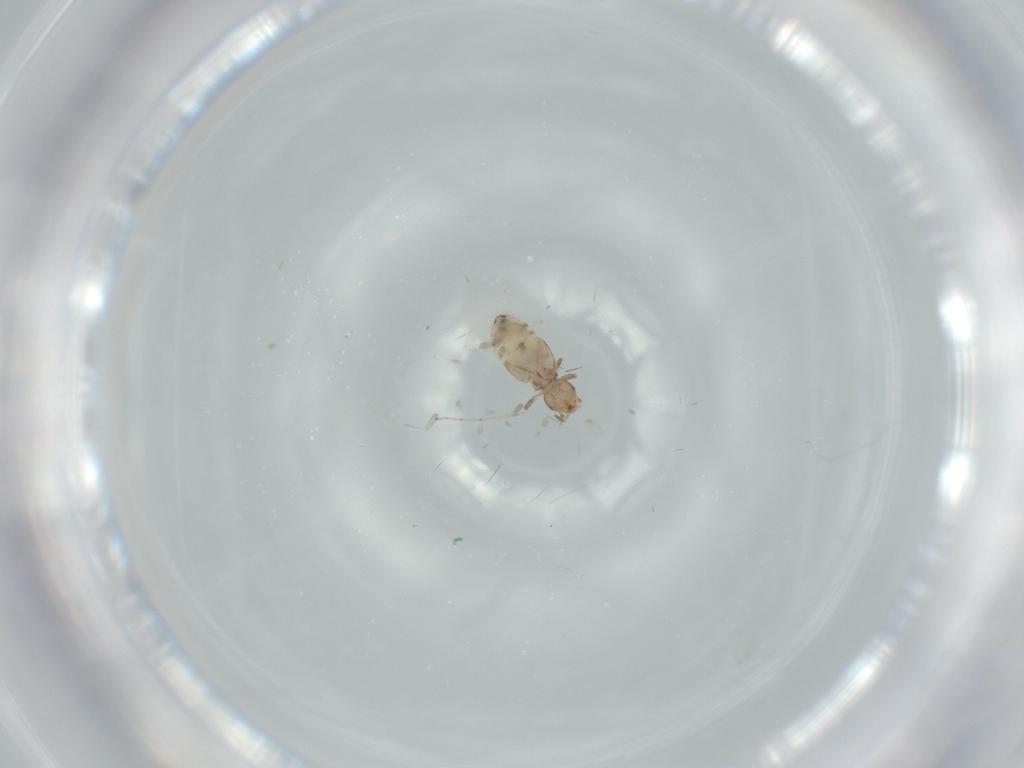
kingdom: Animalia
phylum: Arthropoda
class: Insecta
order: Psocodea
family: Liposcelididae
